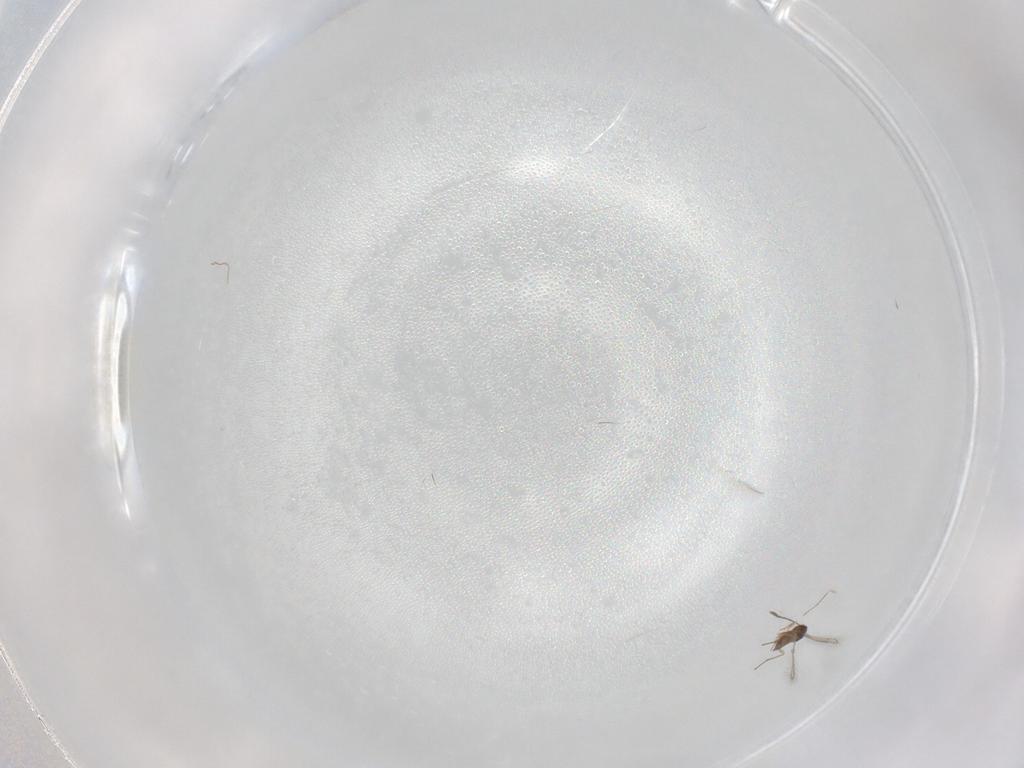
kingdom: Animalia
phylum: Arthropoda
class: Insecta
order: Hymenoptera
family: Mymaridae
